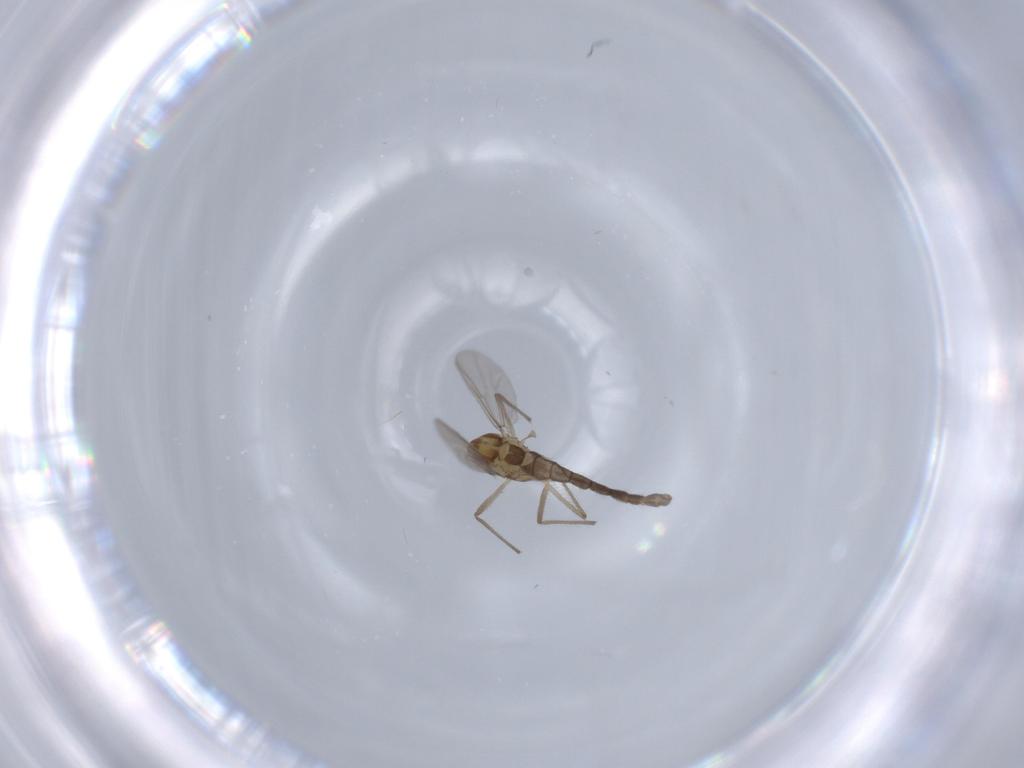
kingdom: Animalia
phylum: Arthropoda
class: Insecta
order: Diptera
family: Chironomidae
